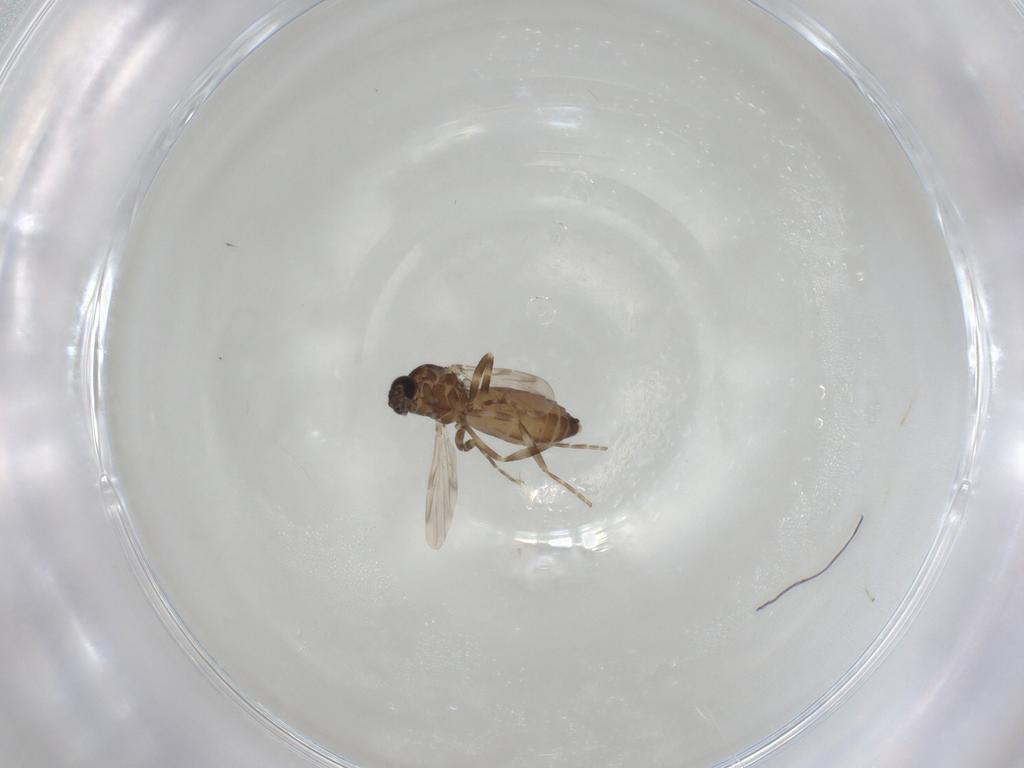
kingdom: Animalia
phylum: Arthropoda
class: Insecta
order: Diptera
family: Ceratopogonidae
